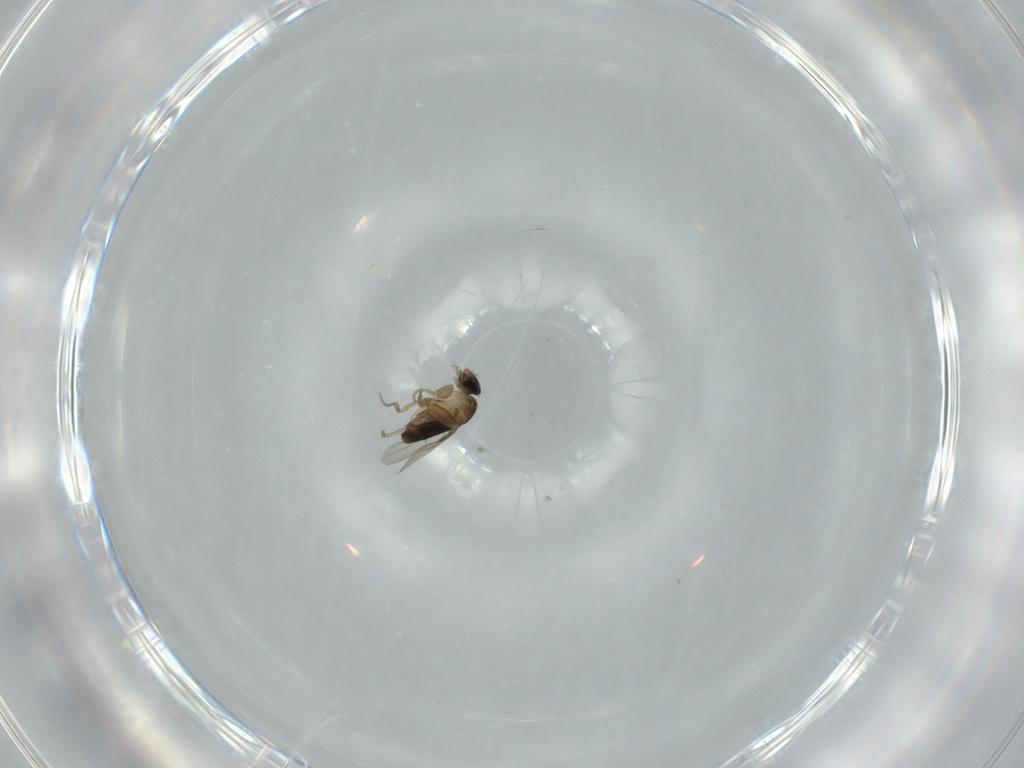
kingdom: Animalia
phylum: Arthropoda
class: Insecta
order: Diptera
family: Phoridae
